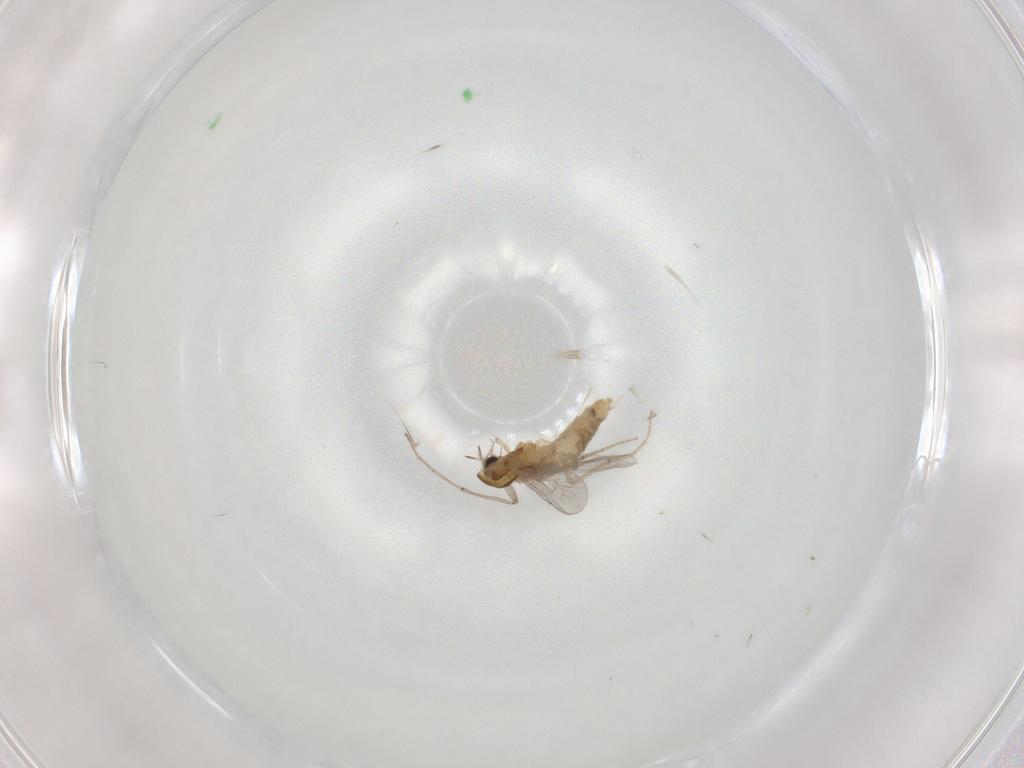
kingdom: Animalia
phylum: Arthropoda
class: Insecta
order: Diptera
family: Chironomidae
